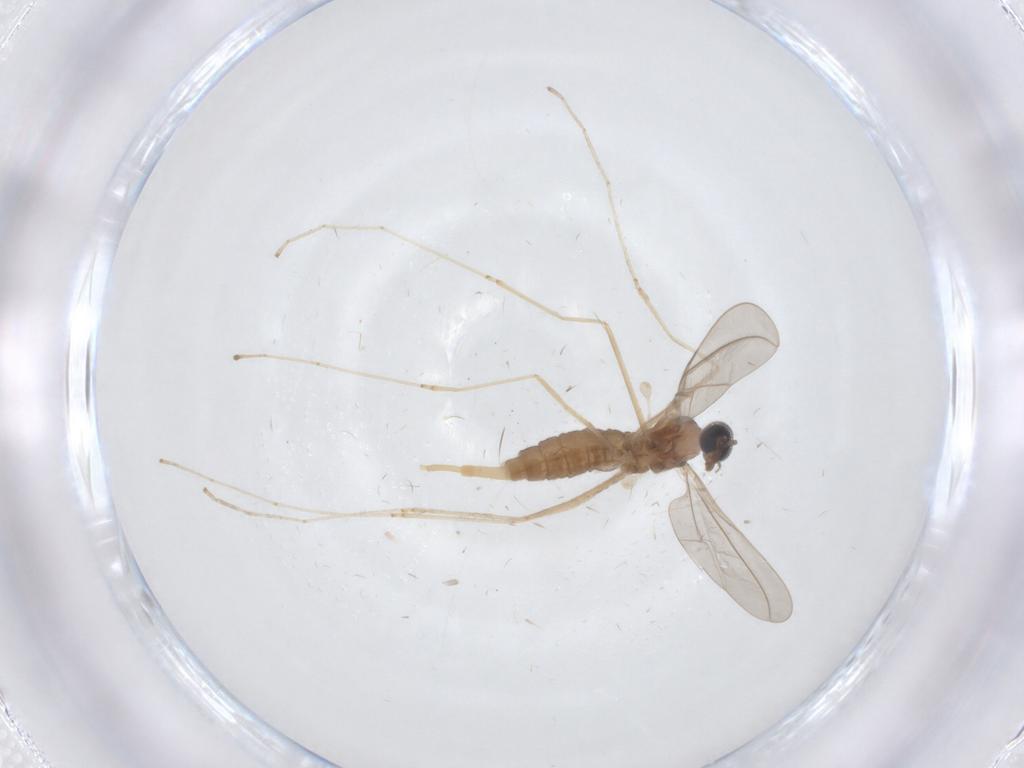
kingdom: Animalia
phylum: Arthropoda
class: Insecta
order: Diptera
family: Cecidomyiidae
